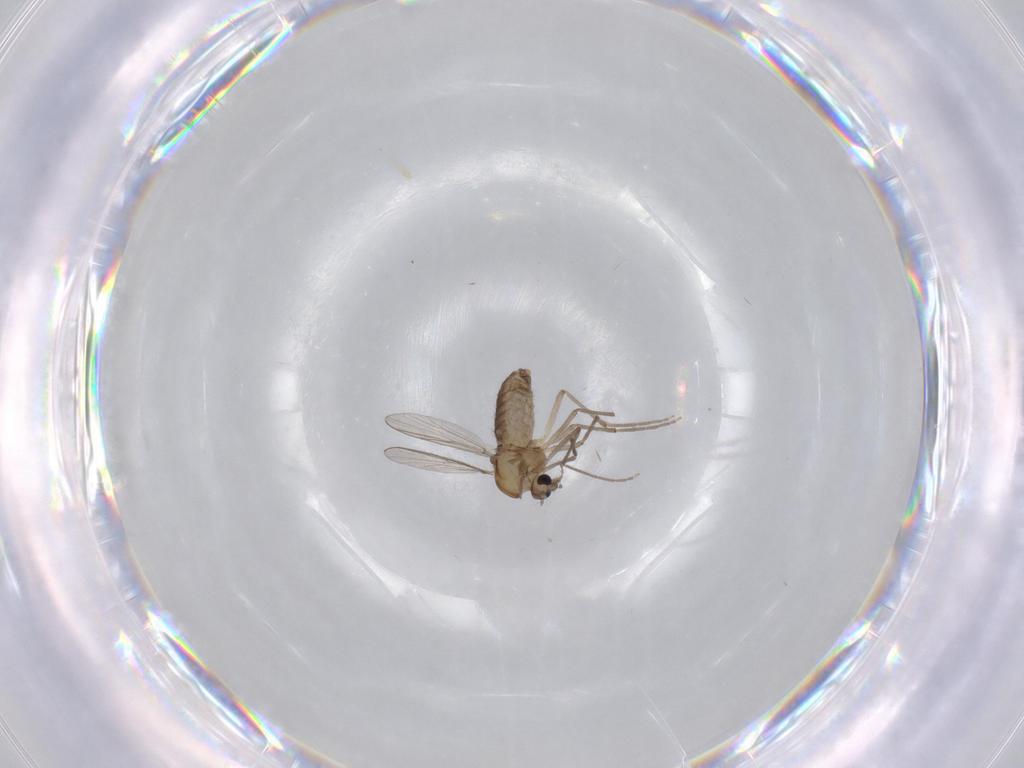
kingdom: Animalia
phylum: Arthropoda
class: Insecta
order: Diptera
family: Chironomidae
